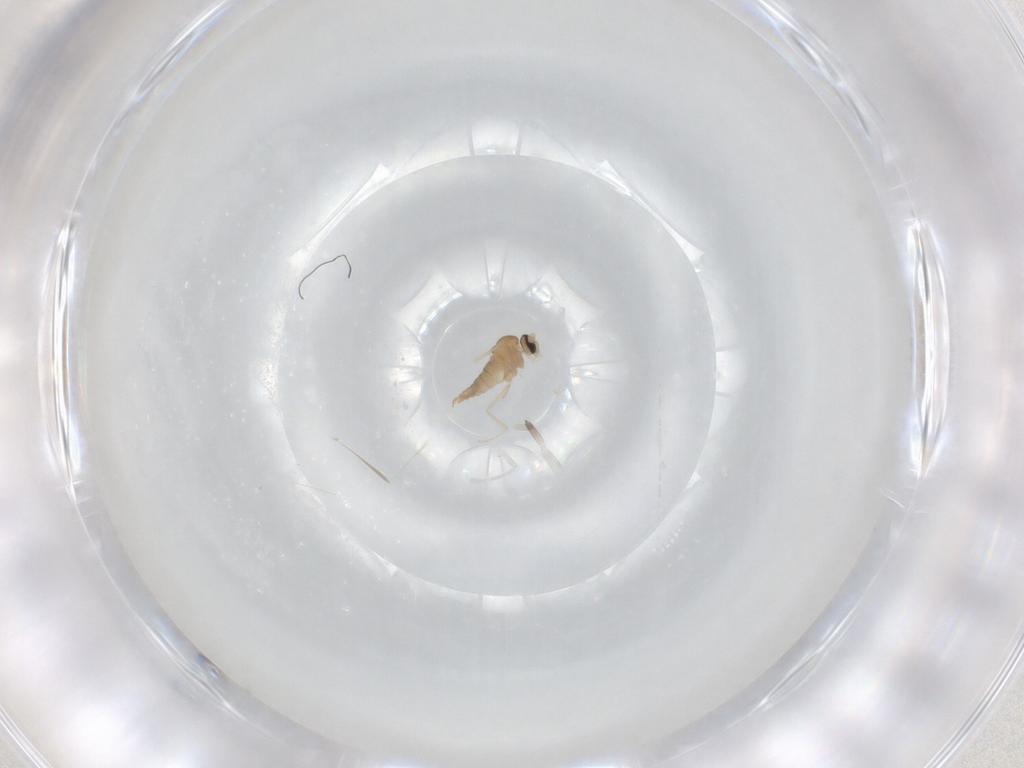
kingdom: Animalia
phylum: Arthropoda
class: Insecta
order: Diptera
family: Cecidomyiidae
